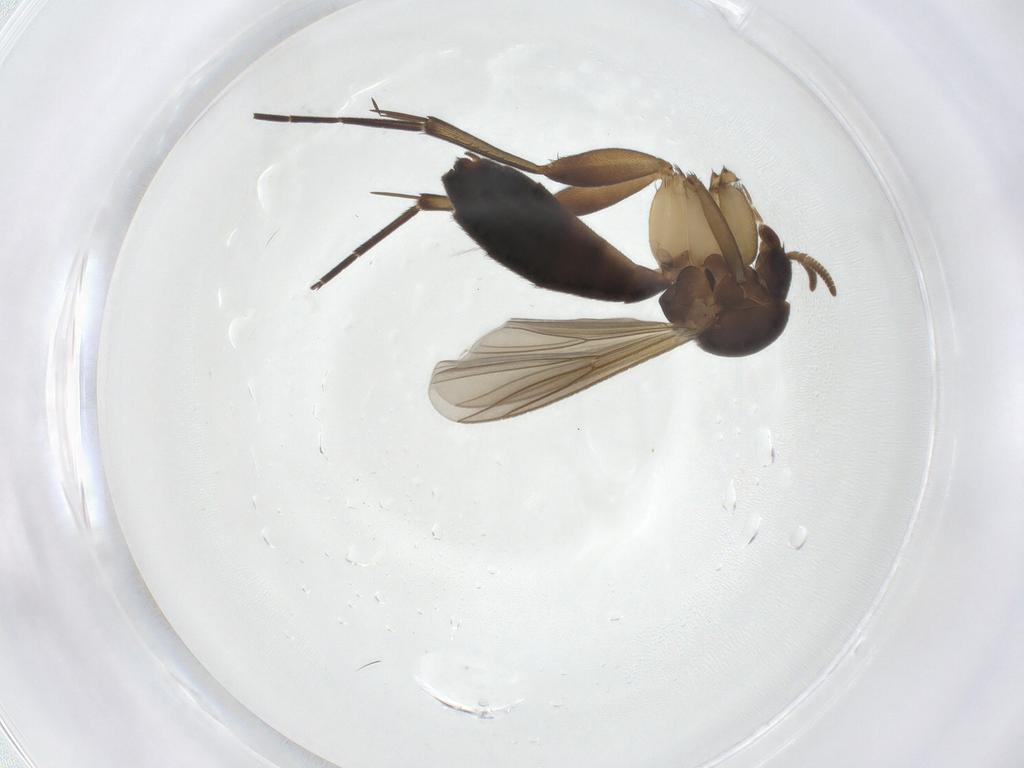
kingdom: Animalia
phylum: Arthropoda
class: Insecta
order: Diptera
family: Mycetophilidae
